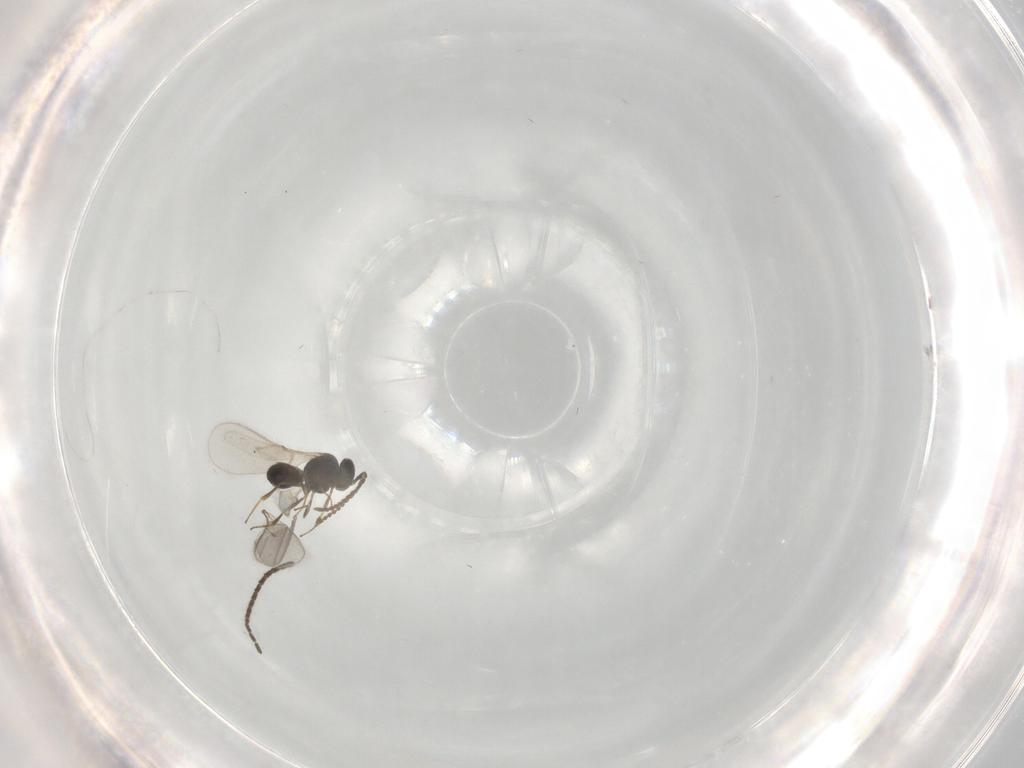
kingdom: Animalia
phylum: Arthropoda
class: Insecta
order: Hymenoptera
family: Scelionidae
